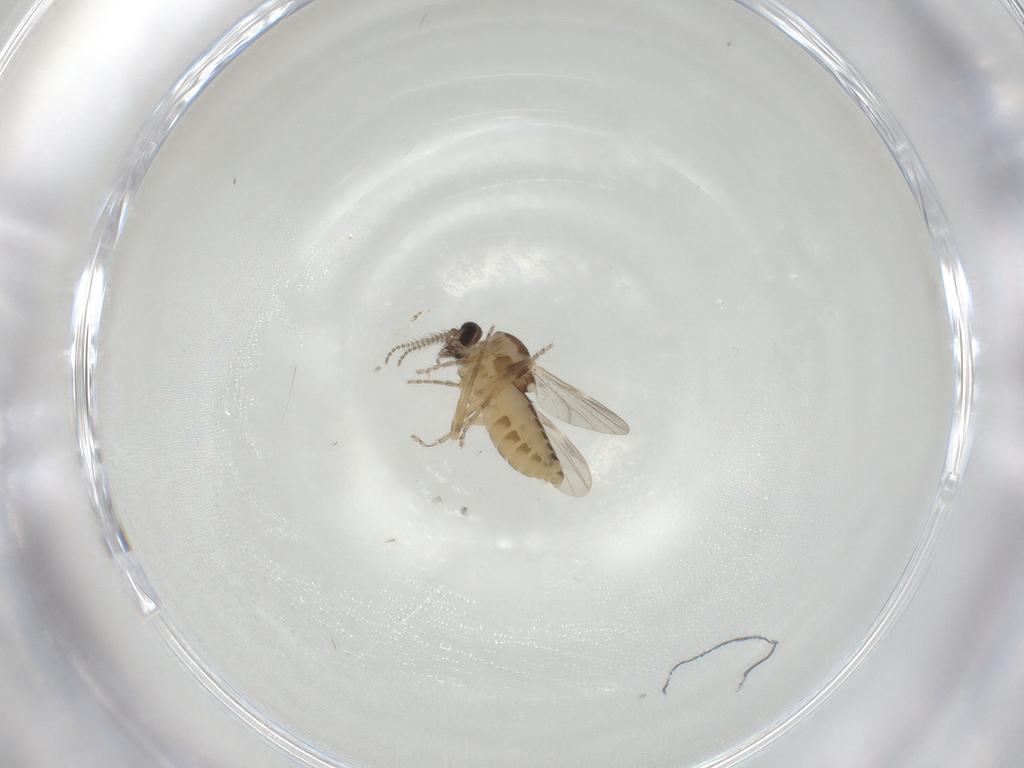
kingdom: Animalia
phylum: Arthropoda
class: Insecta
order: Diptera
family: Ceratopogonidae
